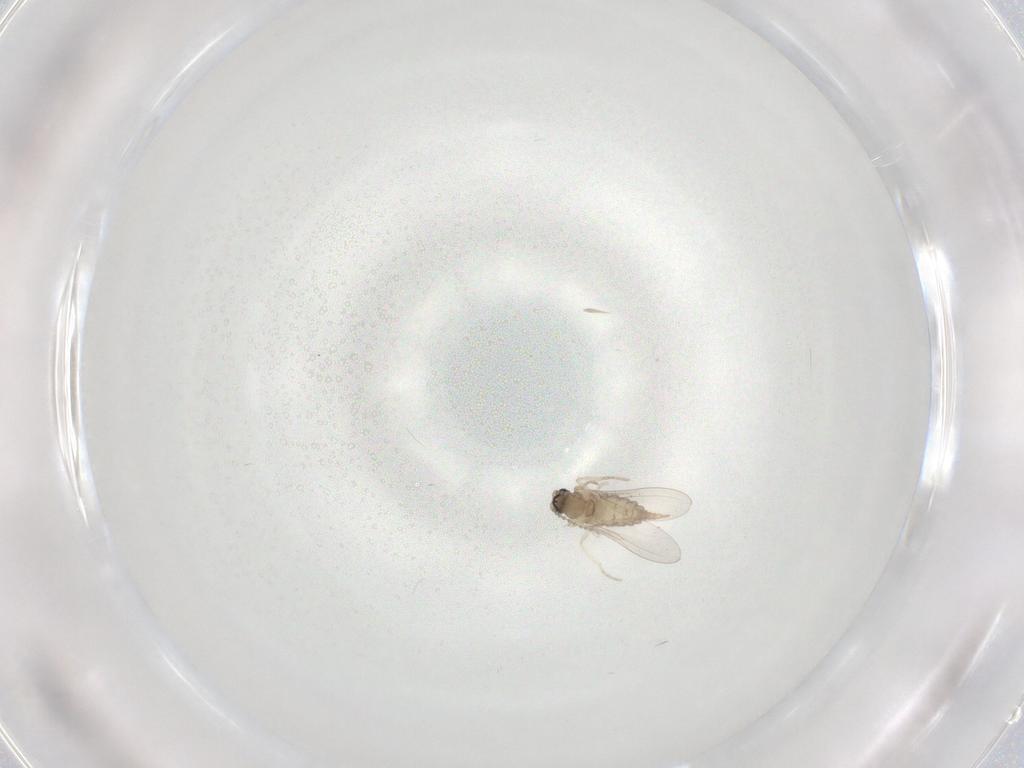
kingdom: Animalia
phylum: Arthropoda
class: Insecta
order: Diptera
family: Cecidomyiidae
